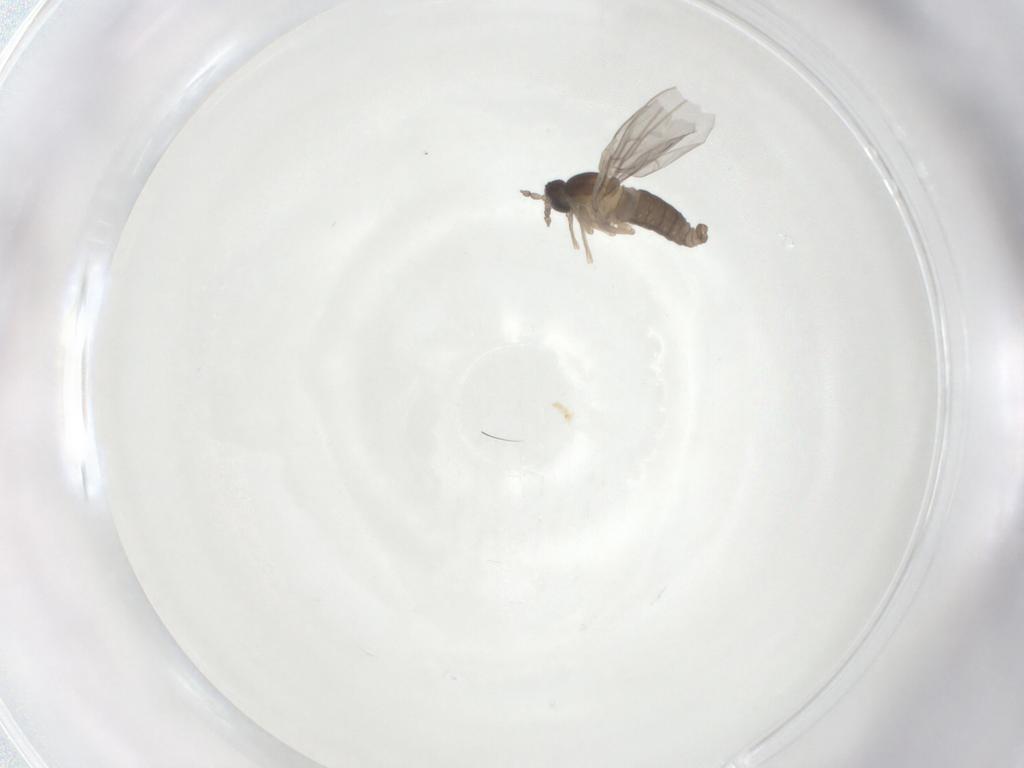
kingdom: Animalia
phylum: Arthropoda
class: Insecta
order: Diptera
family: Cecidomyiidae
